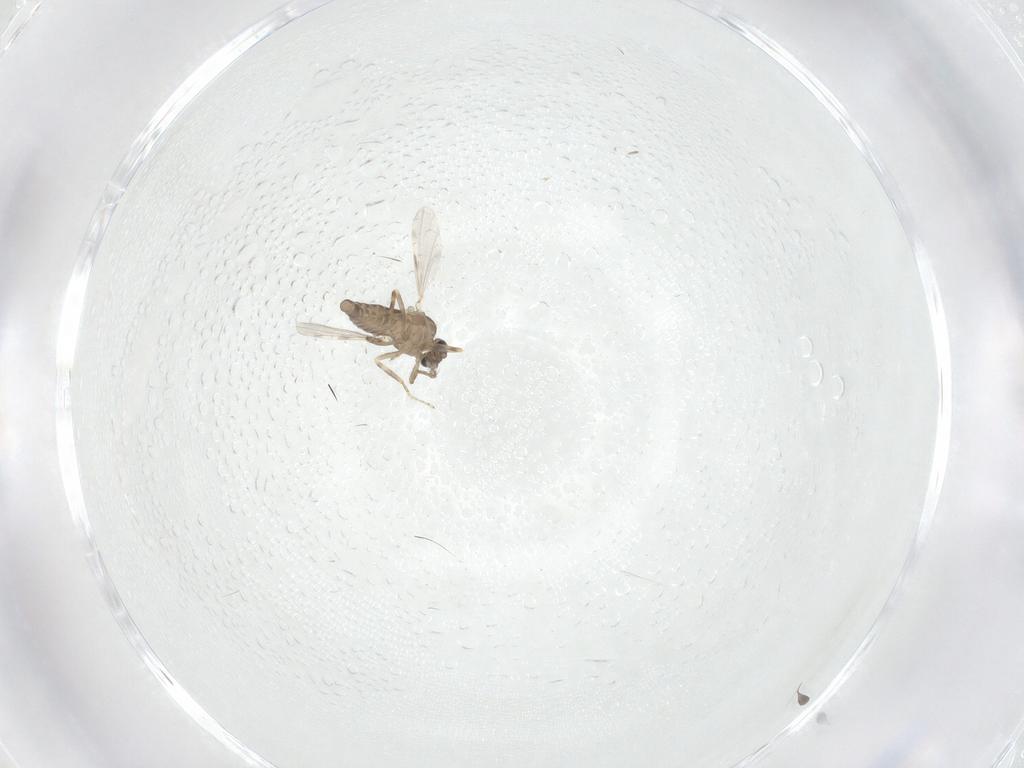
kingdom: Animalia
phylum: Arthropoda
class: Insecta
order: Diptera
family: Ceratopogonidae
